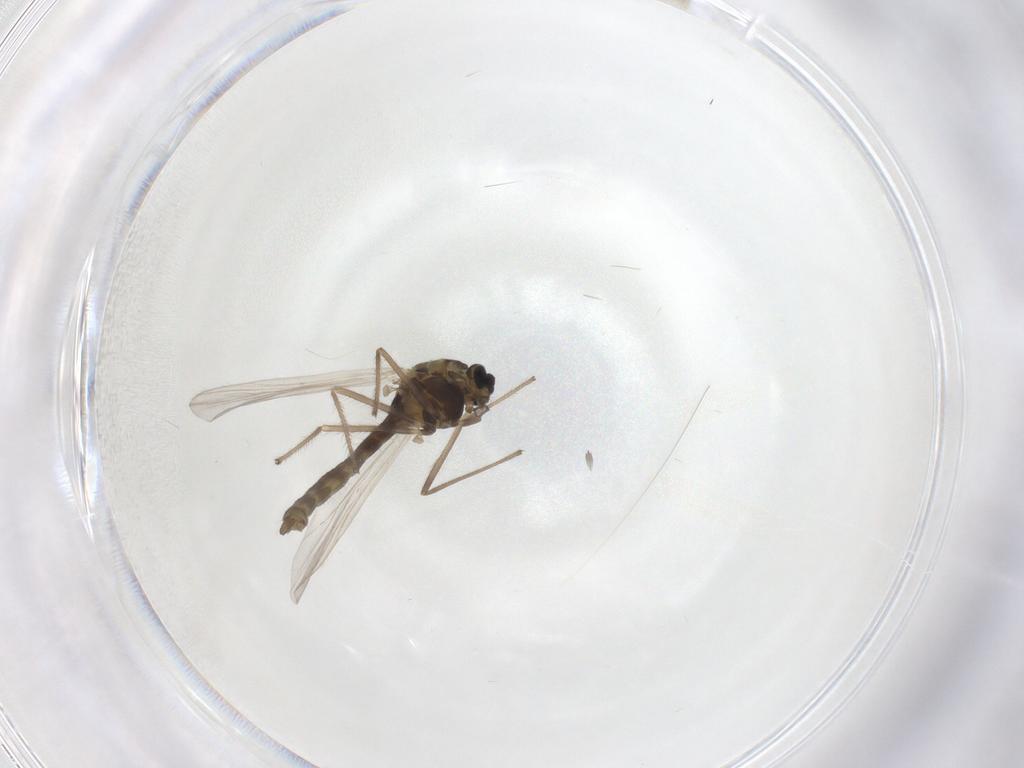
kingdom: Animalia
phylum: Arthropoda
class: Insecta
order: Diptera
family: Chironomidae
